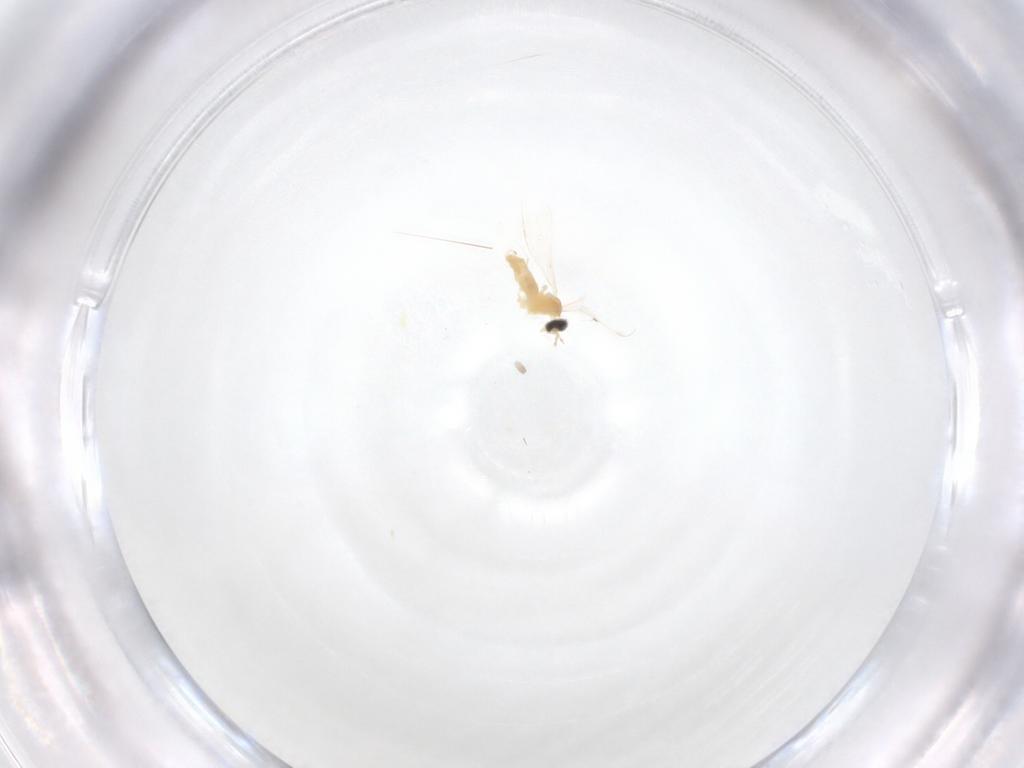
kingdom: Animalia
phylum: Arthropoda
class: Insecta
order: Diptera
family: Cecidomyiidae
